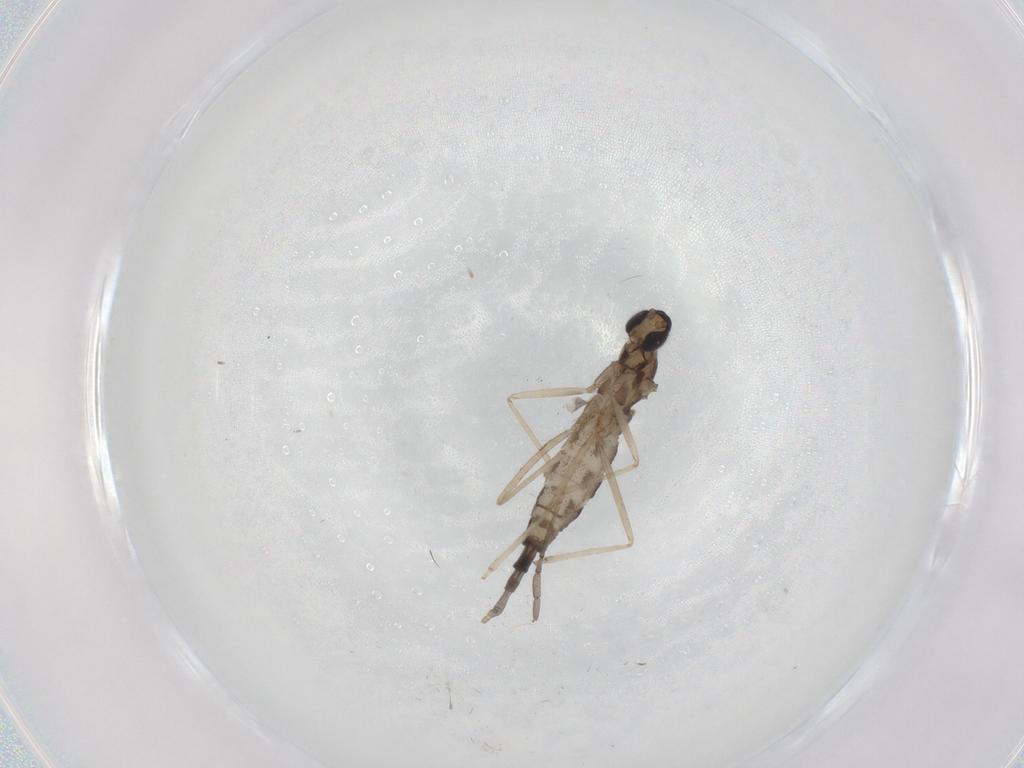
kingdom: Animalia
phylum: Arthropoda
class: Insecta
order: Diptera
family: Cecidomyiidae
